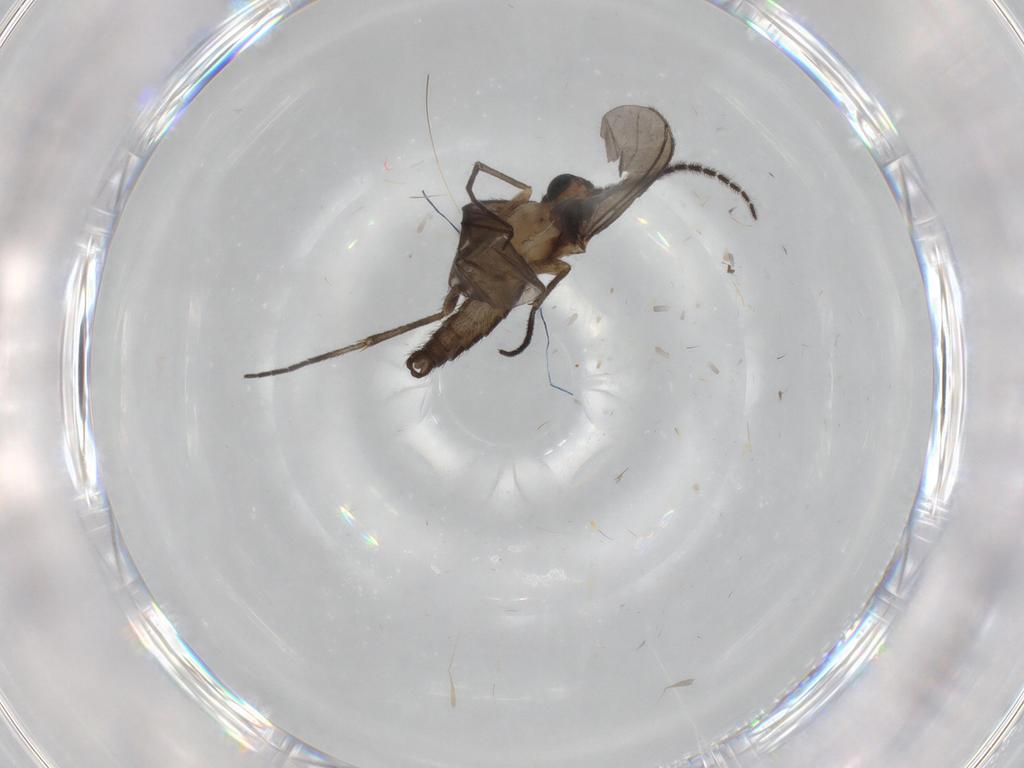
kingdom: Animalia
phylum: Arthropoda
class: Insecta
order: Diptera
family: Sciaridae
